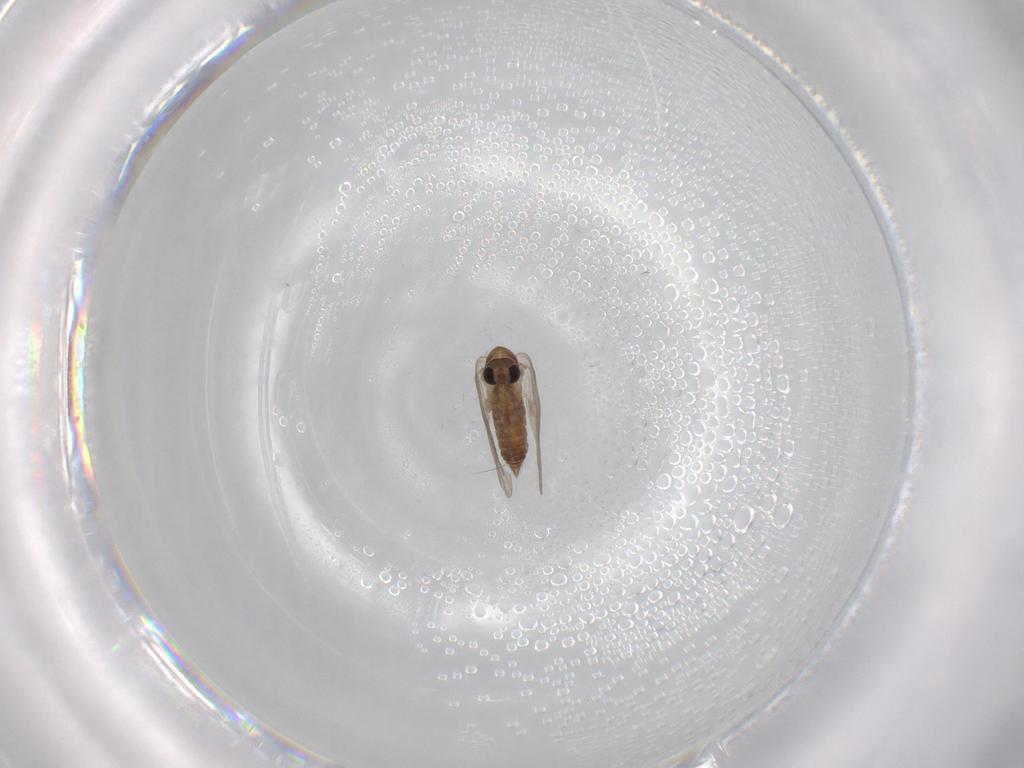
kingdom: Animalia
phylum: Arthropoda
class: Insecta
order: Diptera
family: Psychodidae
